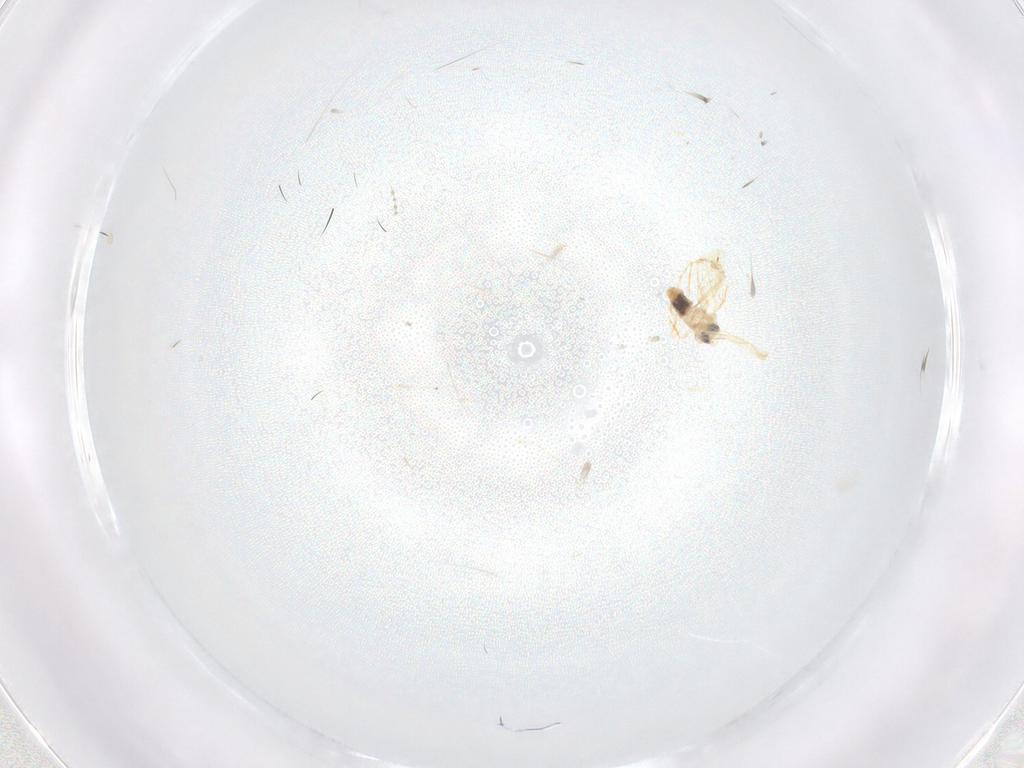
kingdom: Animalia
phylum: Arthropoda
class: Insecta
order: Hemiptera
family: Aleyrodidae
